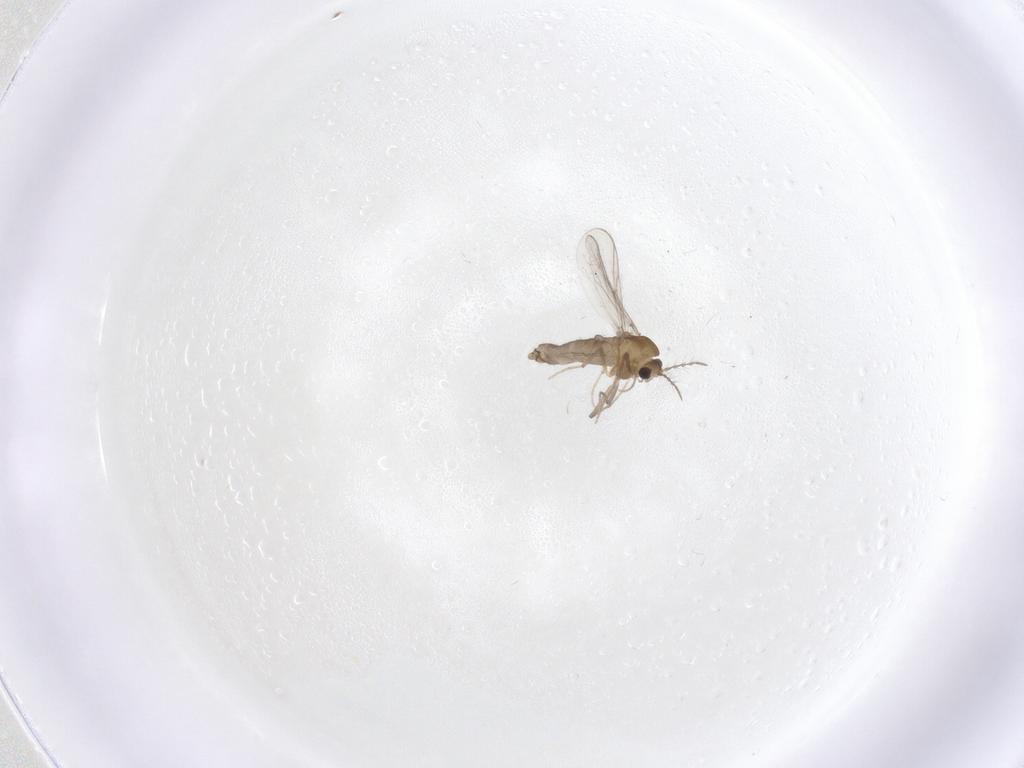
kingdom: Animalia
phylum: Arthropoda
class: Insecta
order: Diptera
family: Chironomidae
